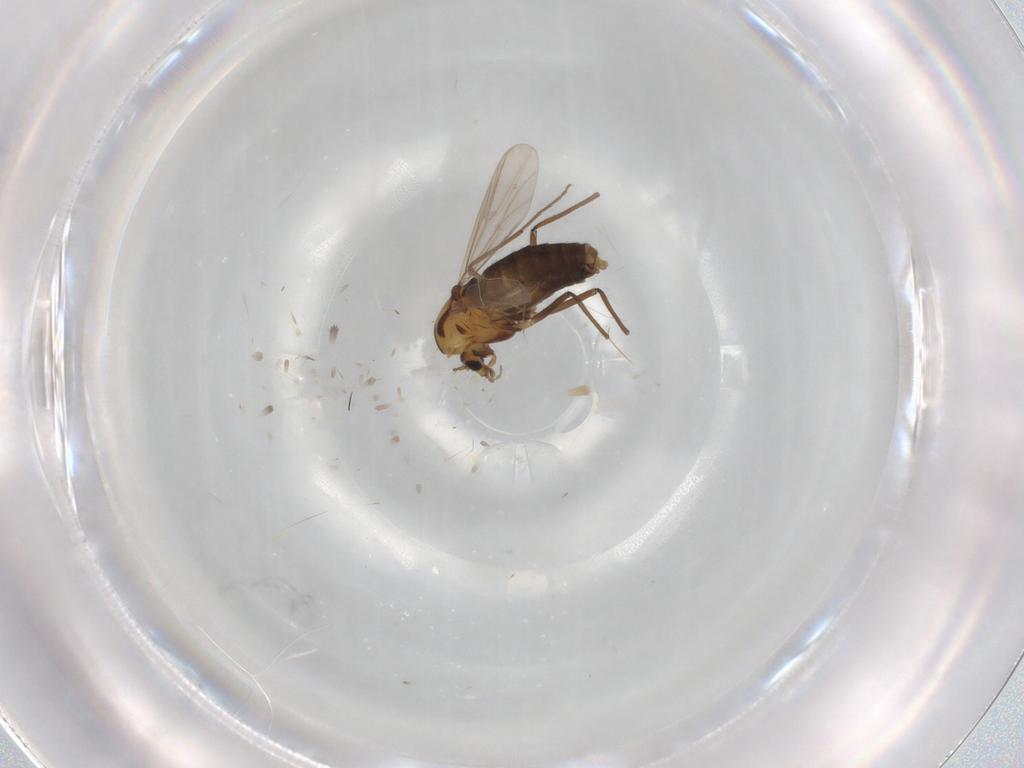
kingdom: Animalia
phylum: Arthropoda
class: Insecta
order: Diptera
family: Chironomidae
